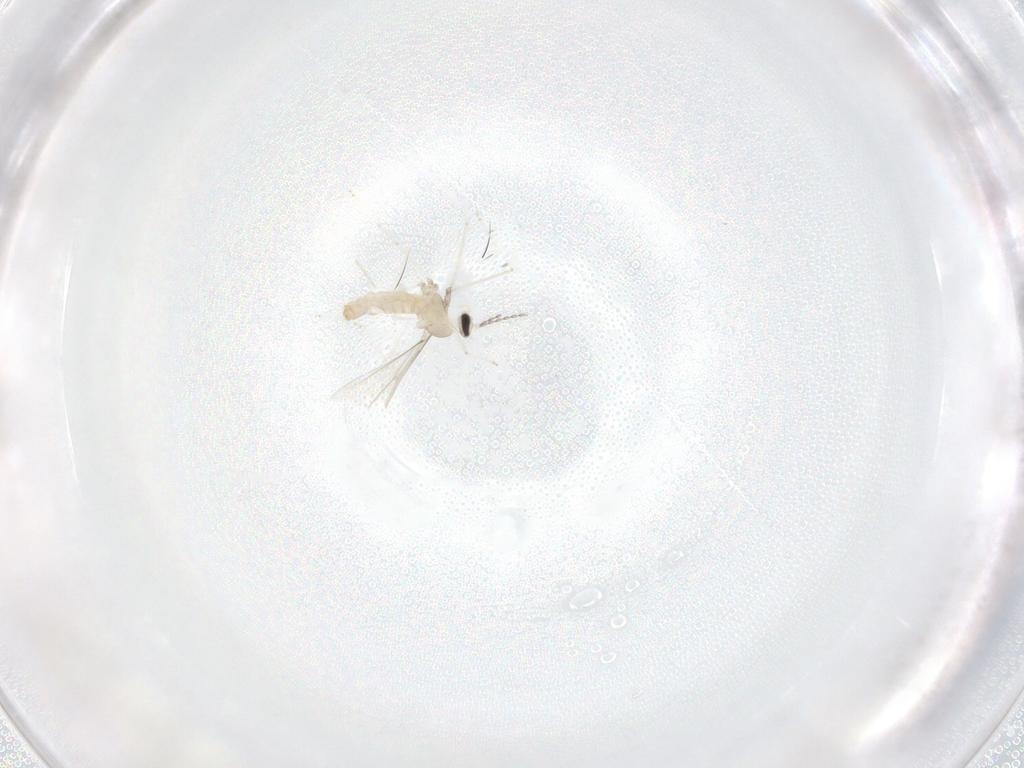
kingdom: Animalia
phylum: Arthropoda
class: Insecta
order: Diptera
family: Cecidomyiidae
